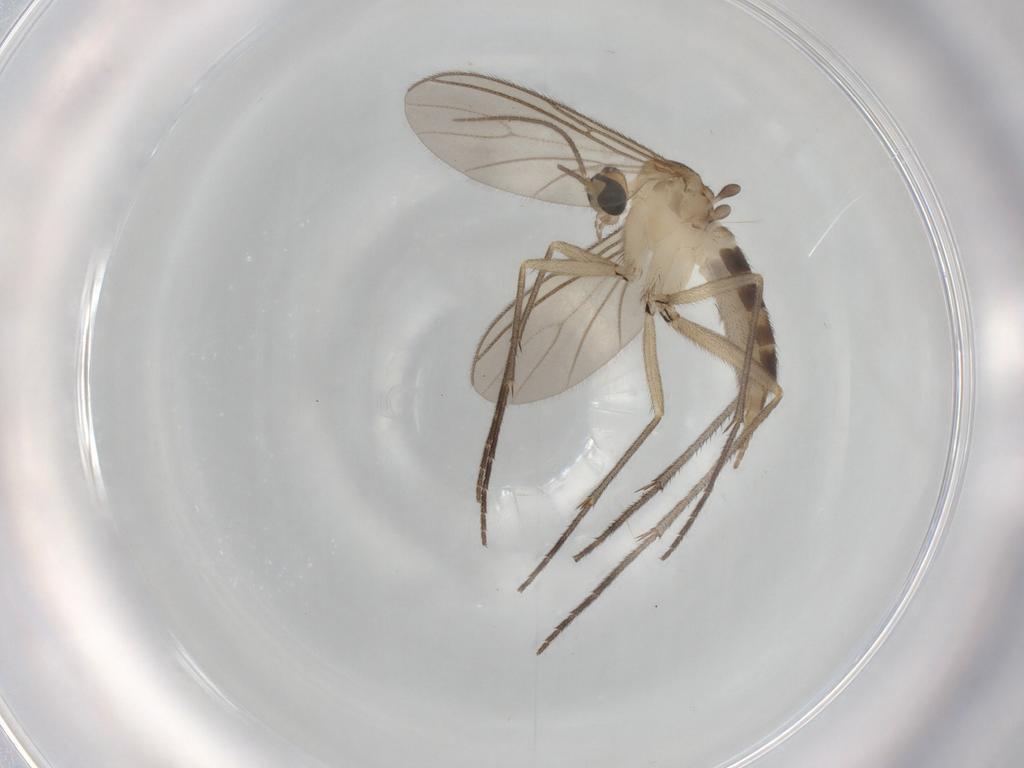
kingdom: Animalia
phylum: Arthropoda
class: Insecta
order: Diptera
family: Sciaridae
